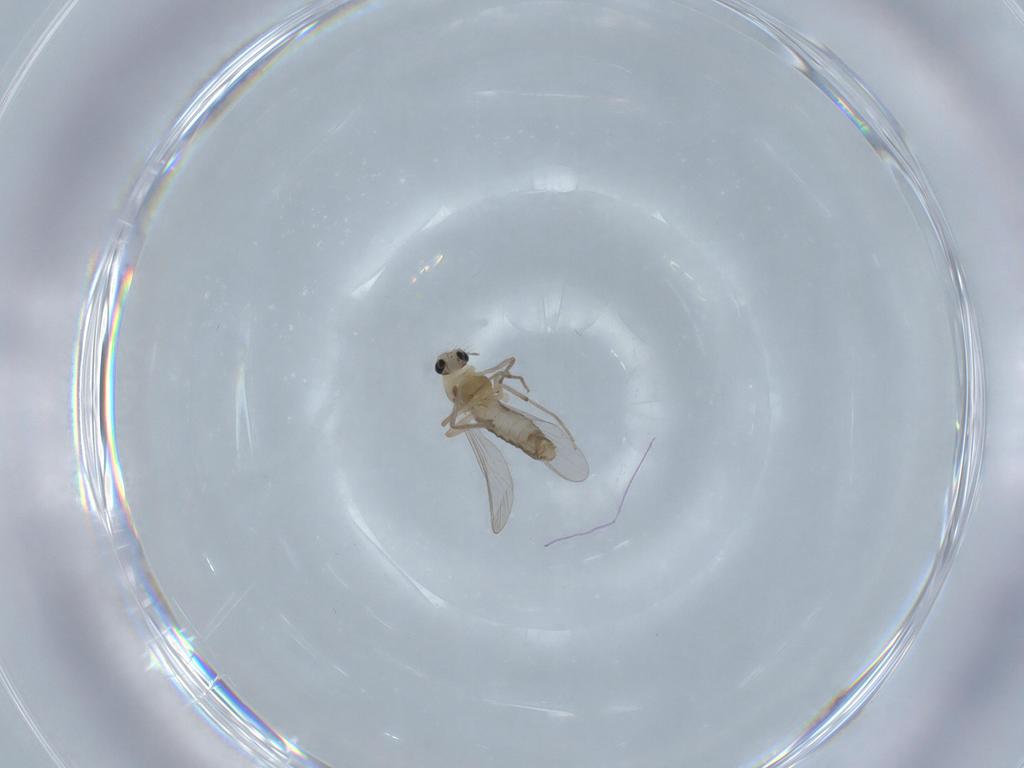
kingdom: Animalia
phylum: Arthropoda
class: Insecta
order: Diptera
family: Chironomidae
